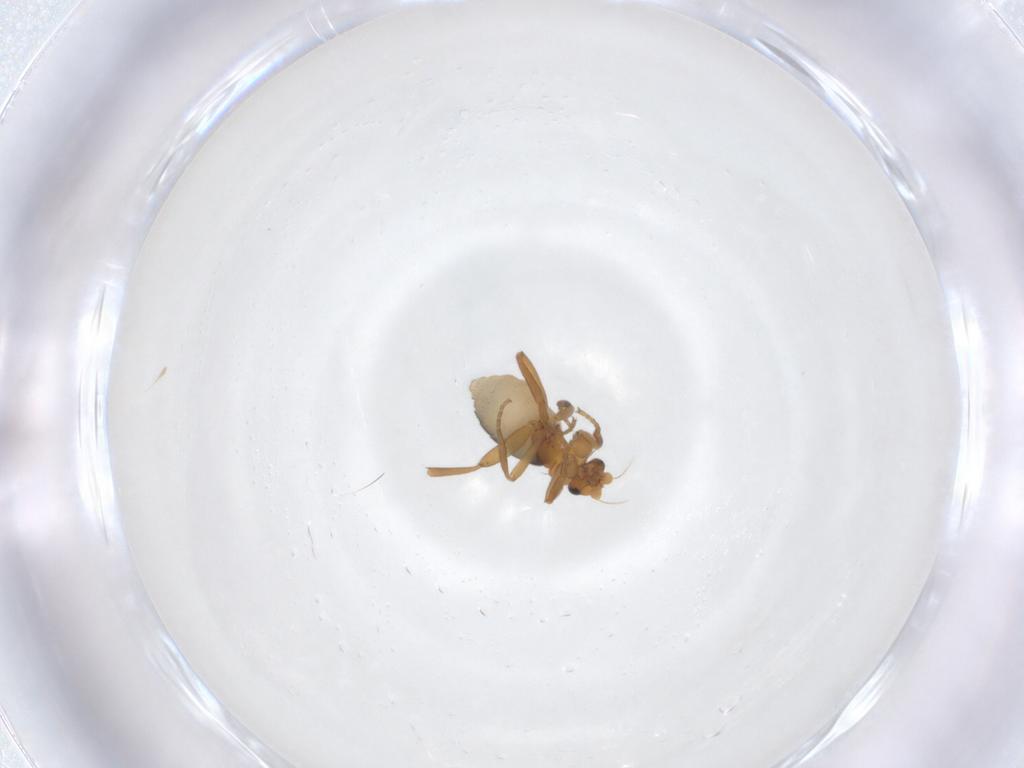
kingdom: Animalia
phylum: Arthropoda
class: Insecta
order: Diptera
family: Phoridae
